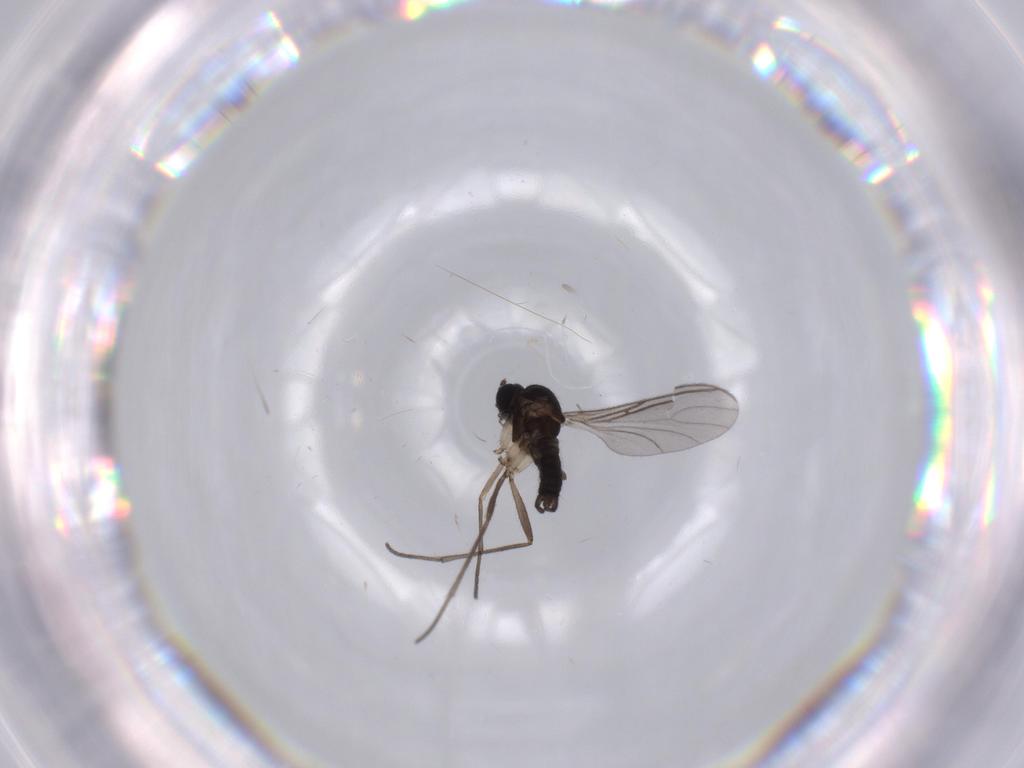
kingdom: Animalia
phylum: Arthropoda
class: Insecta
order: Diptera
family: Sciaridae
